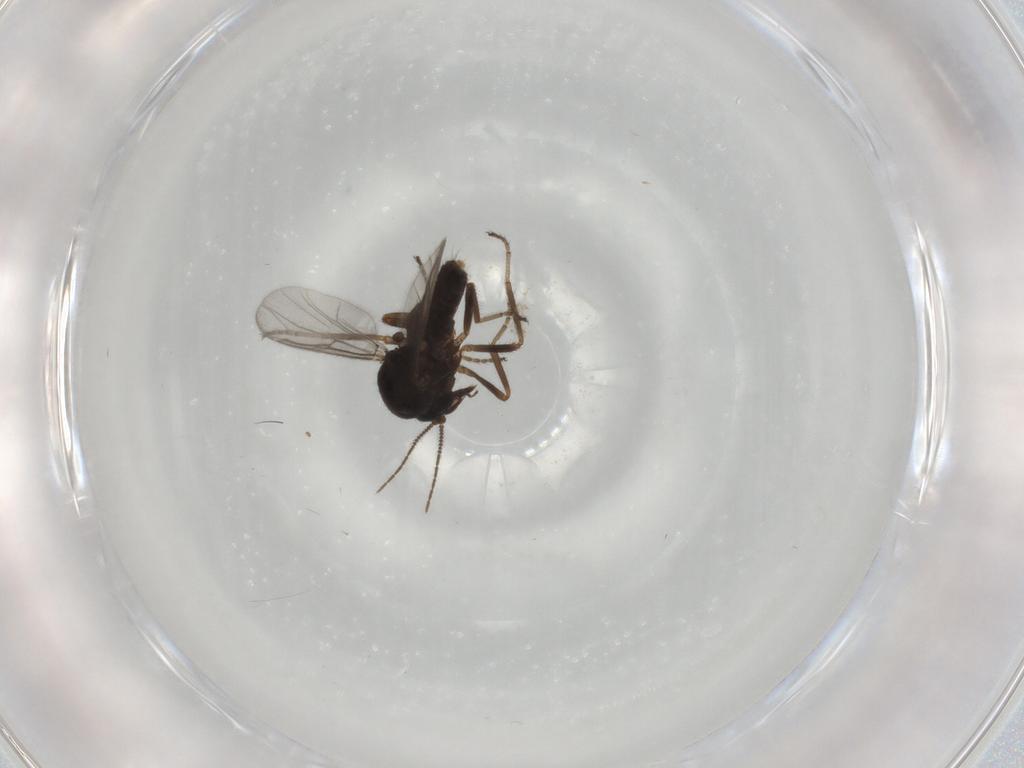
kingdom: Animalia
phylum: Arthropoda
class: Insecta
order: Diptera
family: Ceratopogonidae
